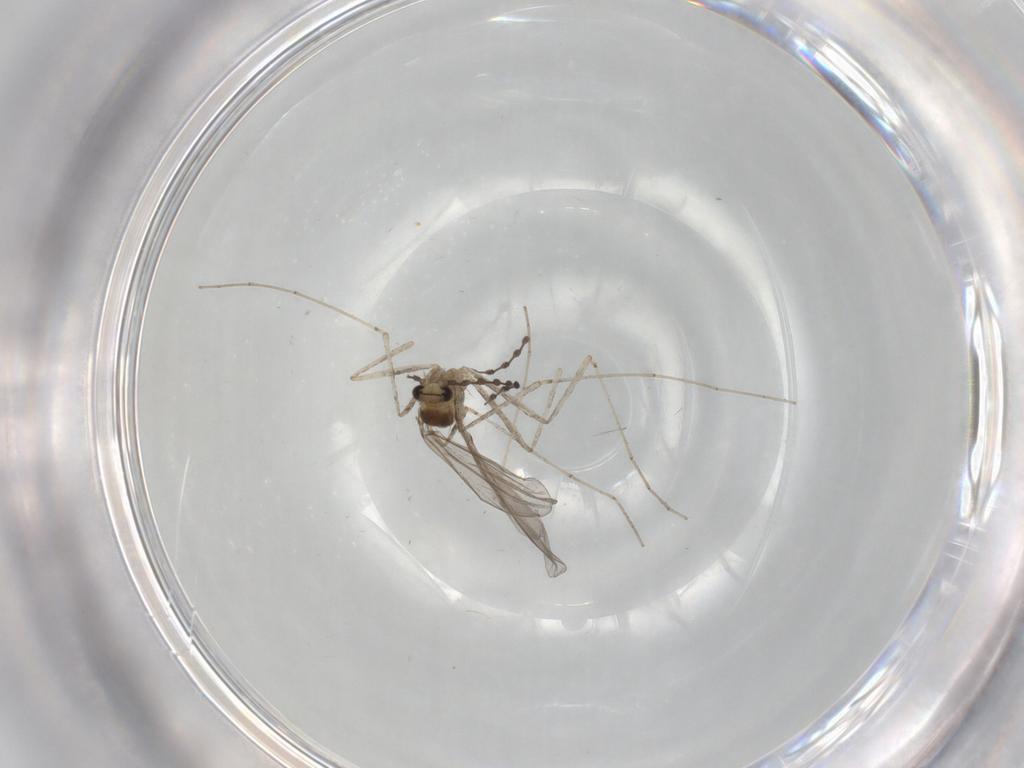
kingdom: Animalia
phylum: Arthropoda
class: Insecta
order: Diptera
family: Cecidomyiidae
